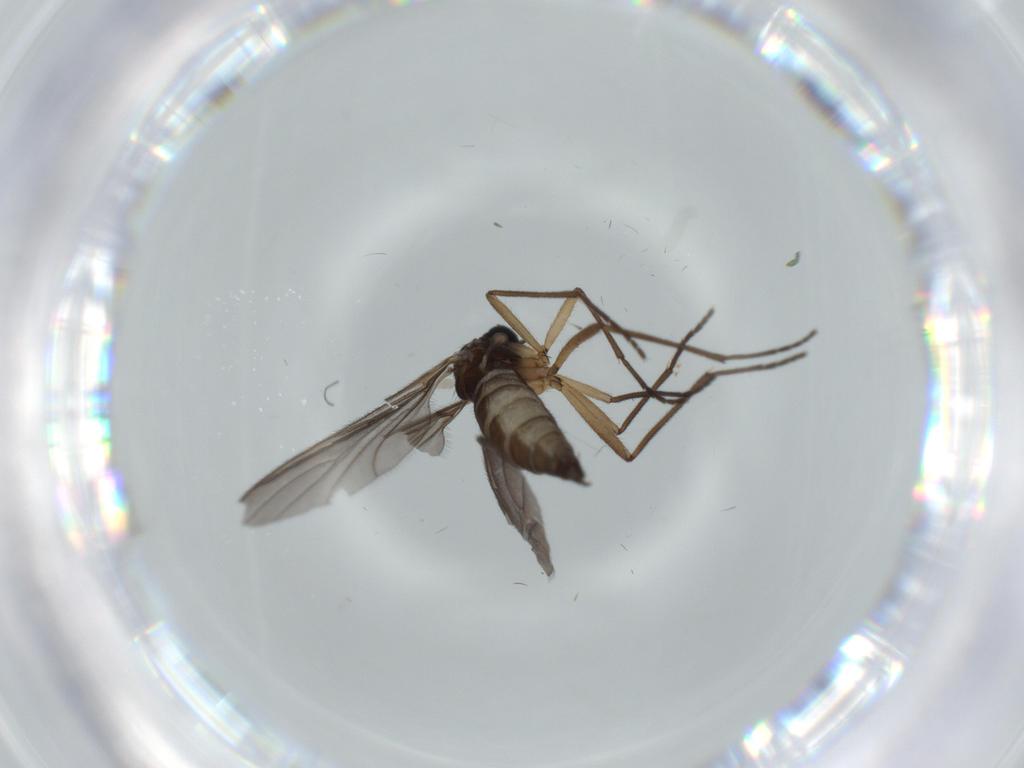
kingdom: Animalia
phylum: Arthropoda
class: Insecta
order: Diptera
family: Sciaridae
